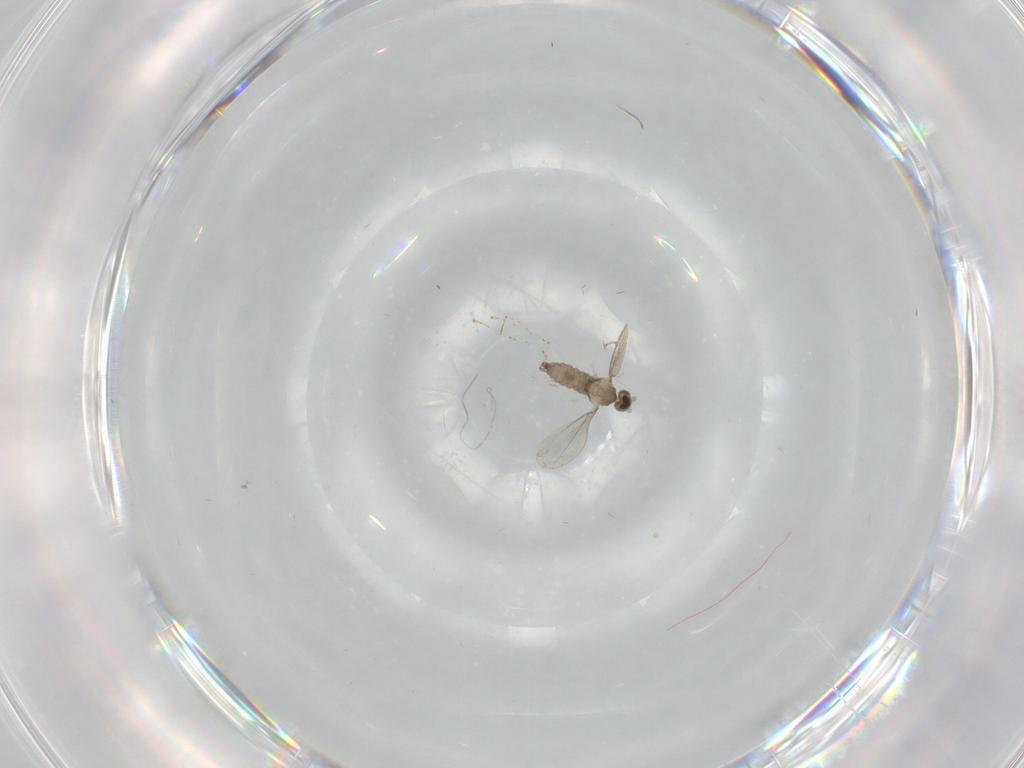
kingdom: Animalia
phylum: Arthropoda
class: Insecta
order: Diptera
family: Cecidomyiidae
